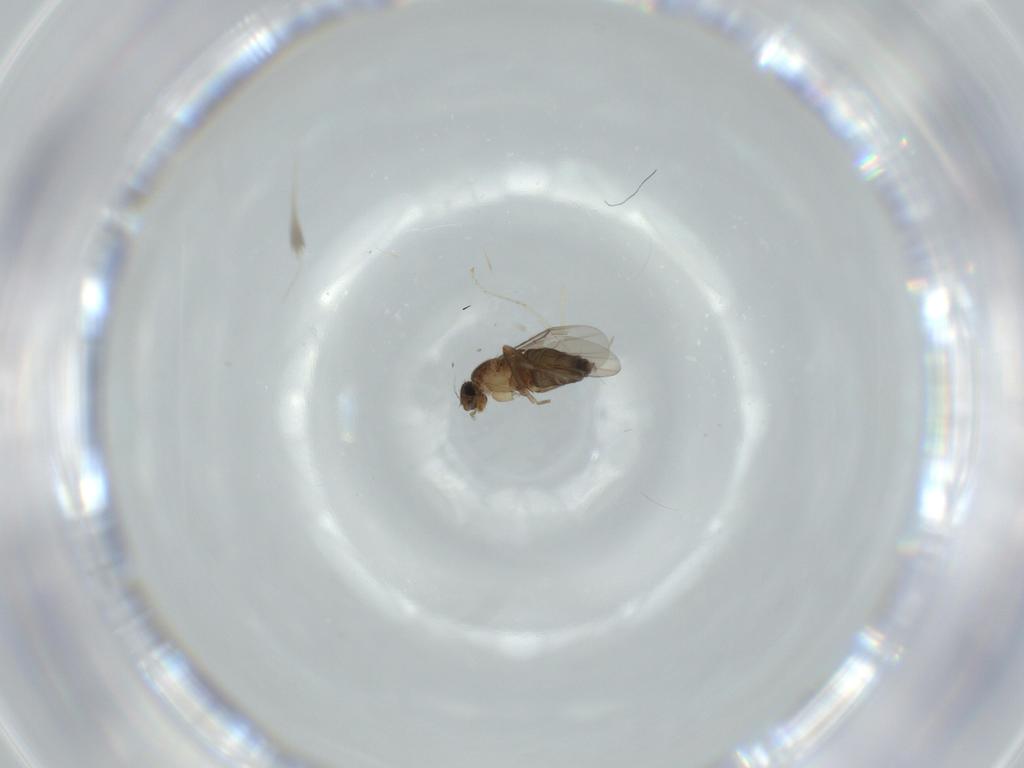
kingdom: Animalia
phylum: Arthropoda
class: Insecta
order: Diptera
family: Phoridae
